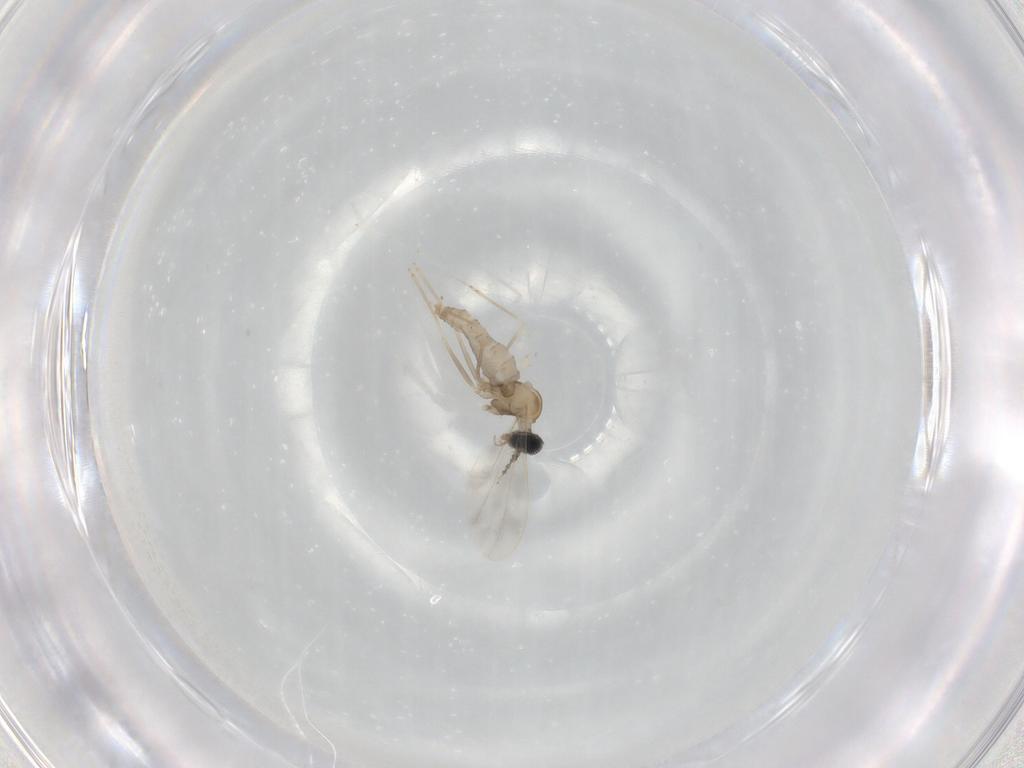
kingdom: Animalia
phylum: Arthropoda
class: Insecta
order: Diptera
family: Cecidomyiidae
